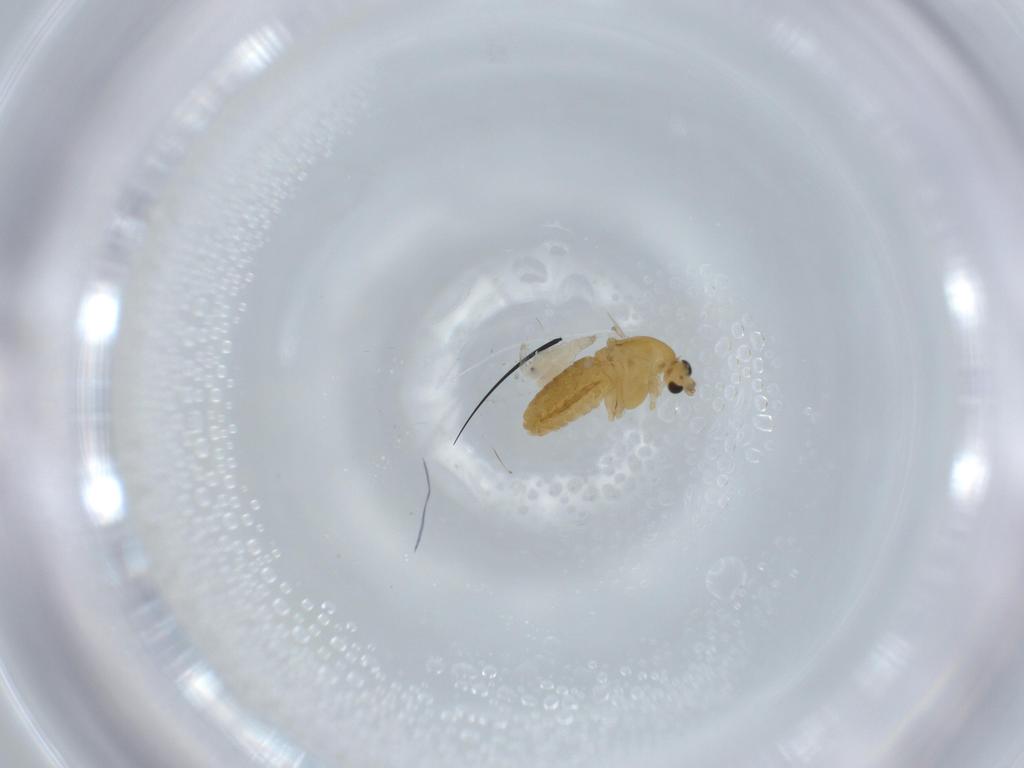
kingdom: Animalia
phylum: Arthropoda
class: Insecta
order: Diptera
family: Chironomidae
